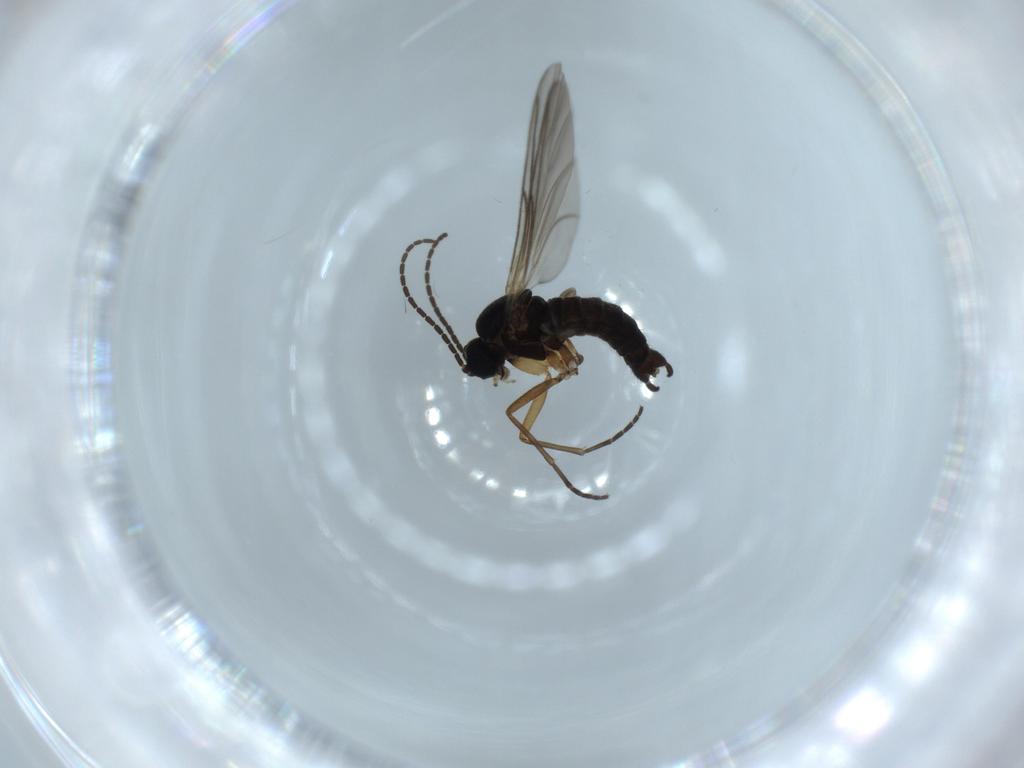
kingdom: Animalia
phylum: Arthropoda
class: Insecta
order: Diptera
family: Sciaridae
